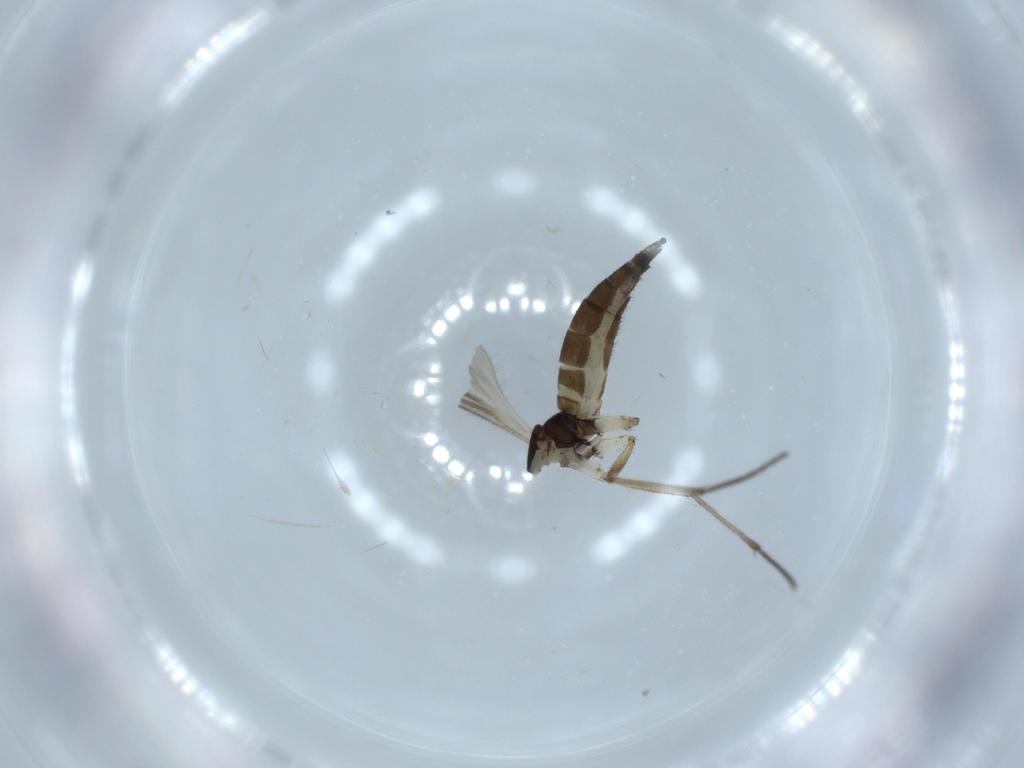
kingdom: Animalia
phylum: Arthropoda
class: Insecta
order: Diptera
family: Sciaridae
